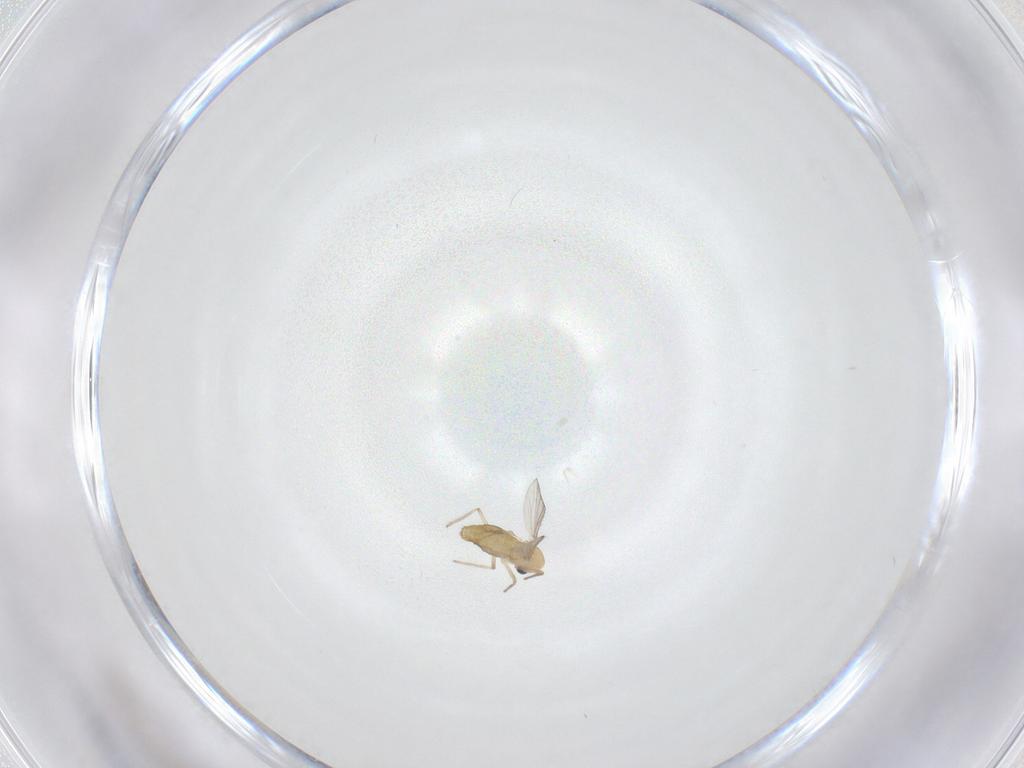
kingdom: Animalia
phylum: Arthropoda
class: Insecta
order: Diptera
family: Chironomidae
